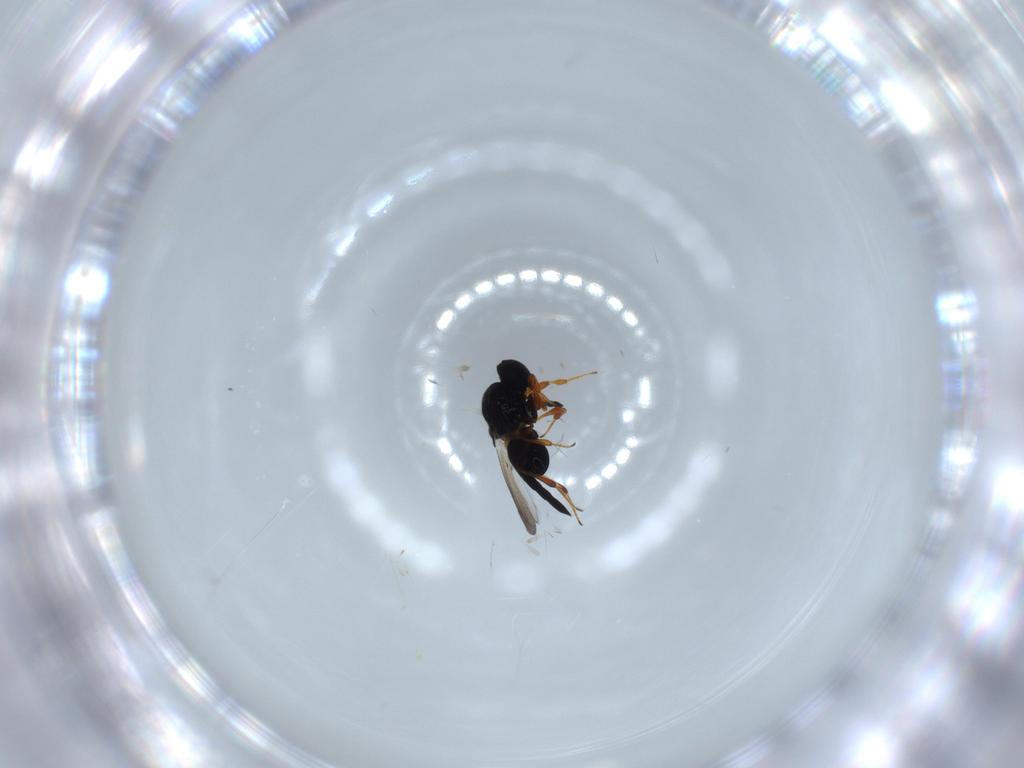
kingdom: Animalia
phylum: Arthropoda
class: Insecta
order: Hymenoptera
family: Platygastridae
